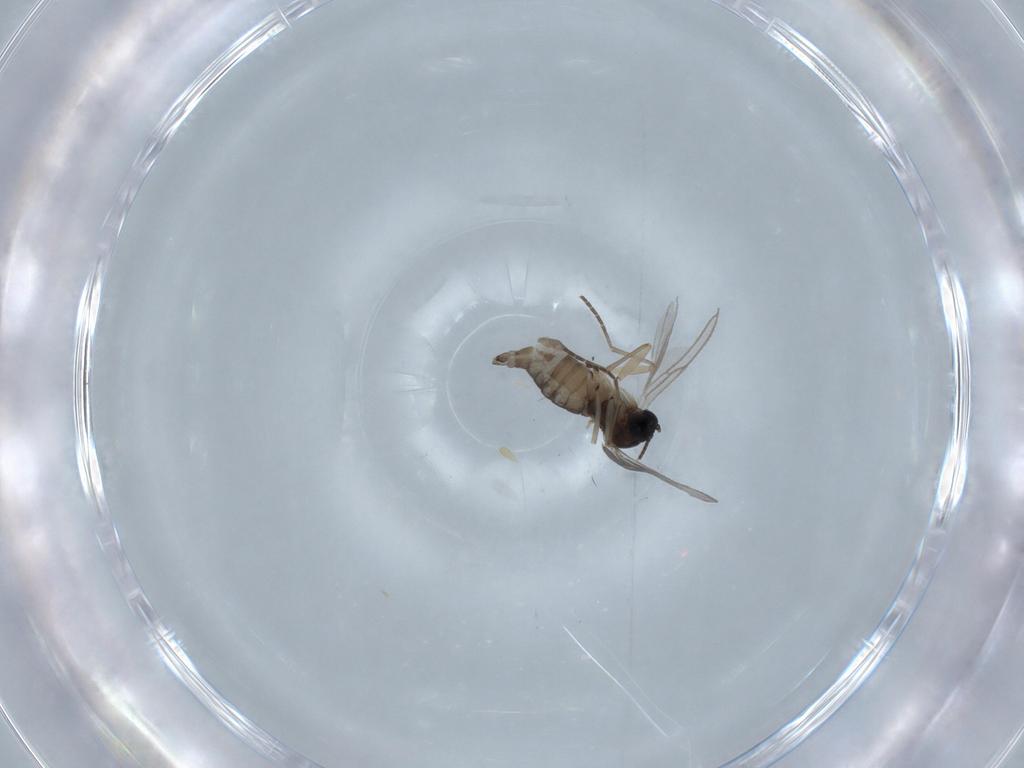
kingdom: Animalia
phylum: Arthropoda
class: Insecta
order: Diptera
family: Sciaridae
